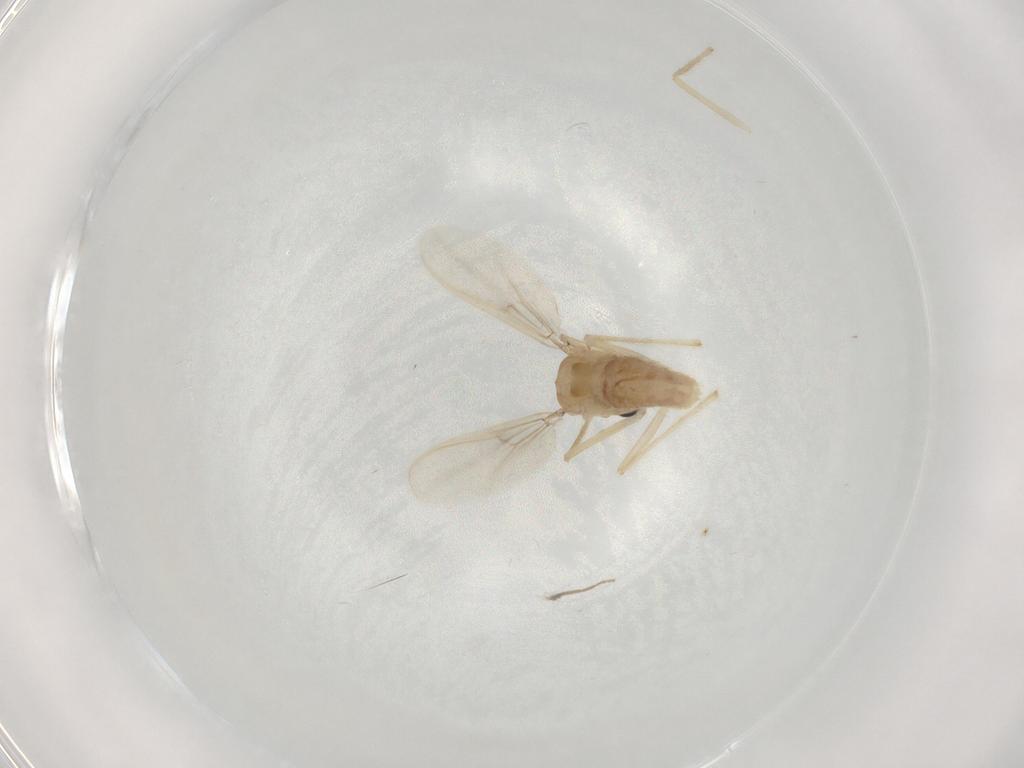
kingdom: Animalia
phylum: Arthropoda
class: Insecta
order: Diptera
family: Chironomidae
